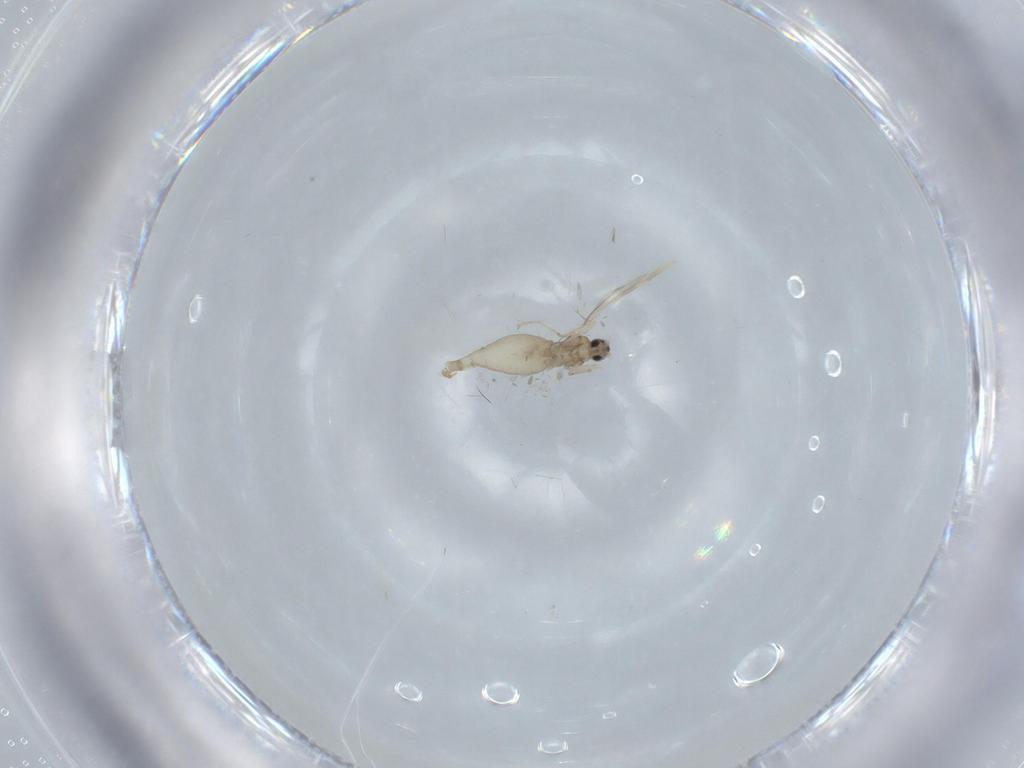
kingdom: Animalia
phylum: Arthropoda
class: Insecta
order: Diptera
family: Cecidomyiidae
